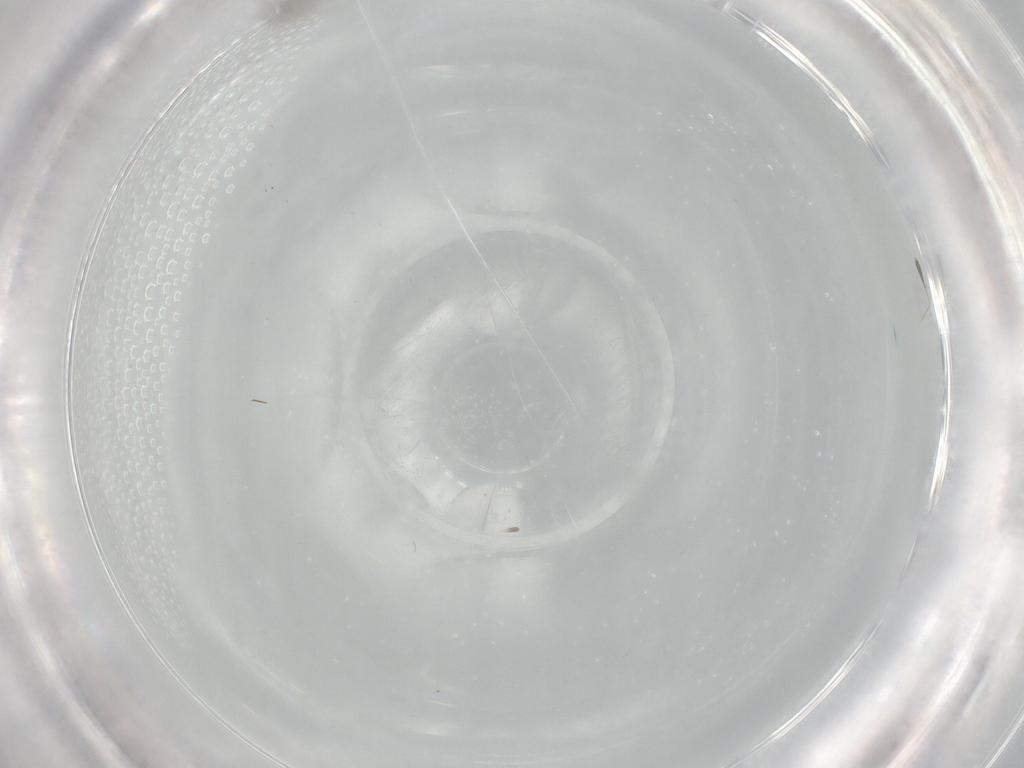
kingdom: Animalia
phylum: Arthropoda
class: Insecta
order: Diptera
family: Cecidomyiidae
